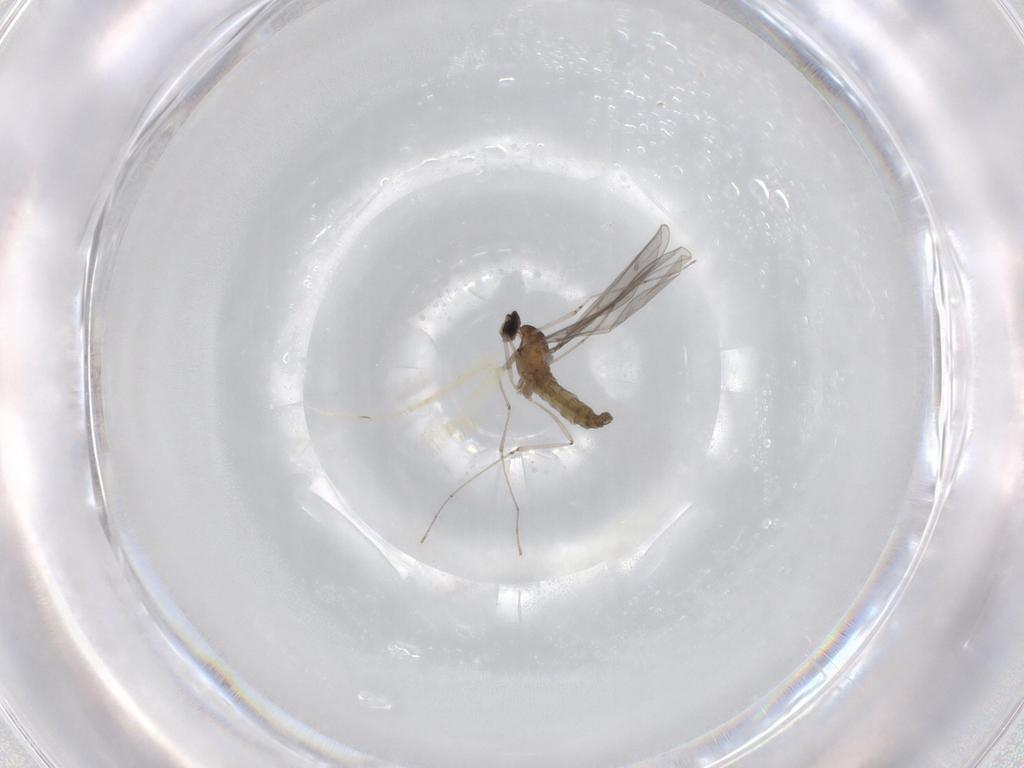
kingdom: Animalia
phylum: Arthropoda
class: Insecta
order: Diptera
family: Cecidomyiidae
